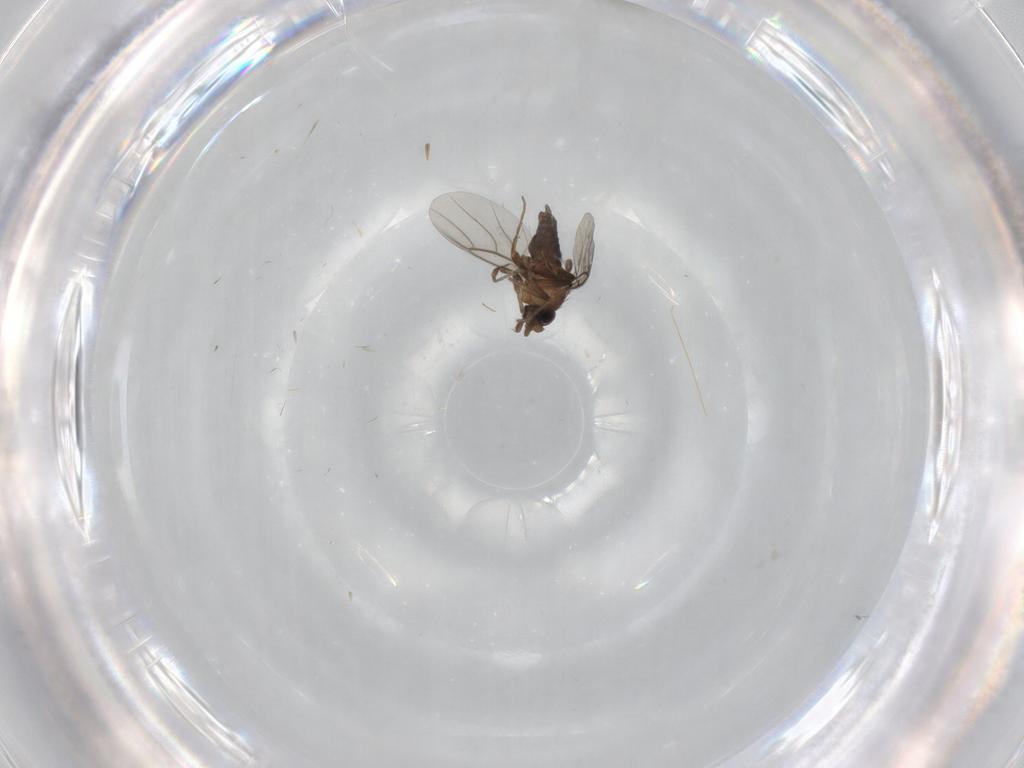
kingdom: Animalia
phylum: Arthropoda
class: Insecta
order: Diptera
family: Phoridae
